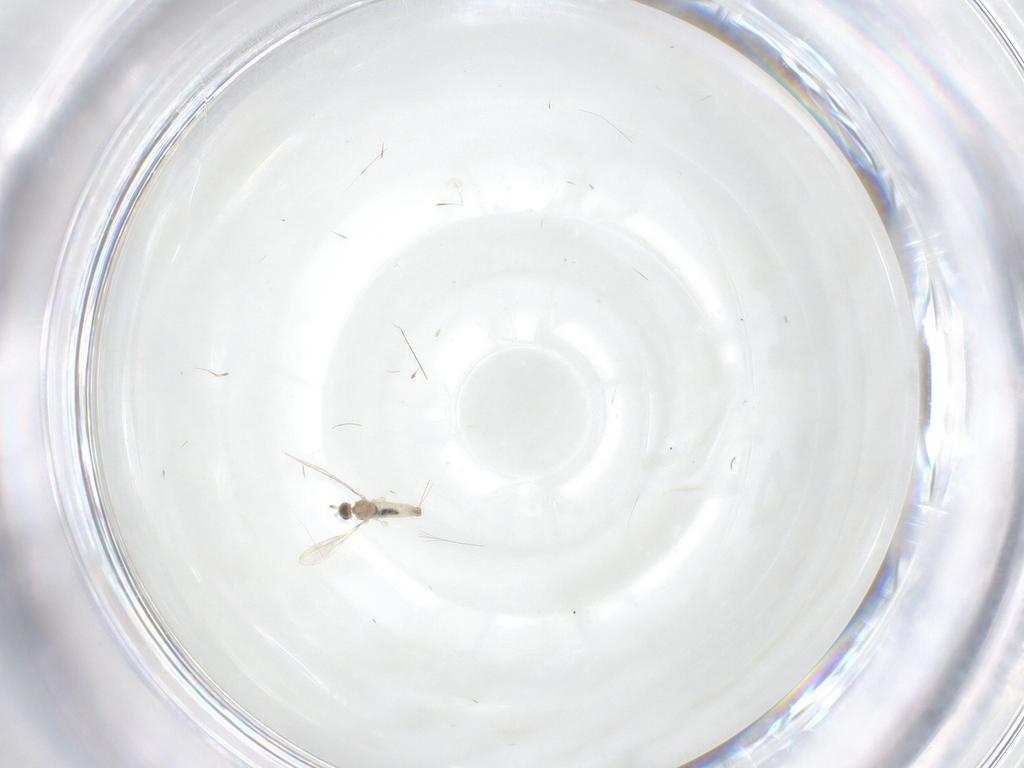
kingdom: Animalia
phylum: Arthropoda
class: Insecta
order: Diptera
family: Psychodidae
